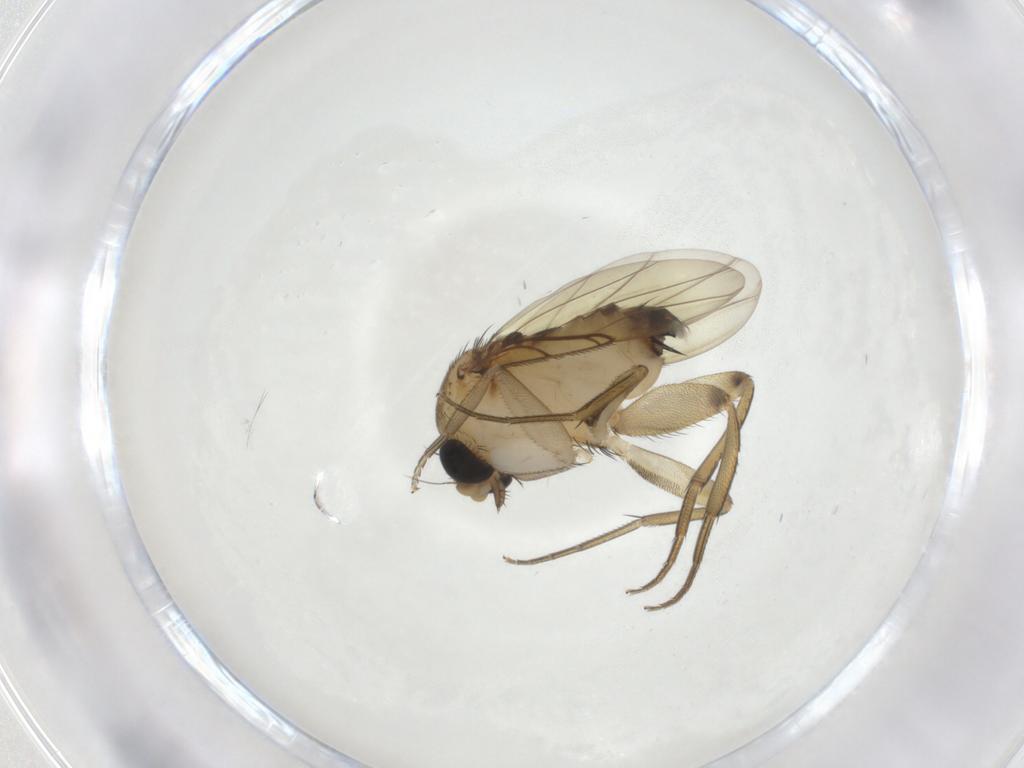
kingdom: Animalia
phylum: Arthropoda
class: Insecta
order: Diptera
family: Phoridae
